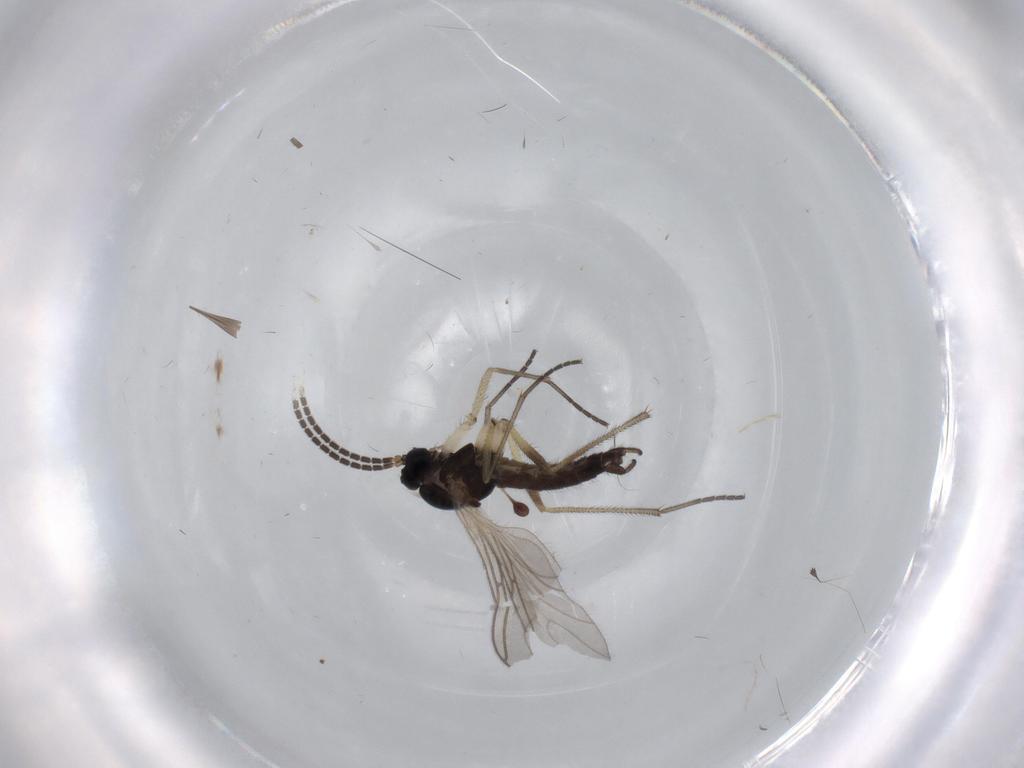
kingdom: Animalia
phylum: Arthropoda
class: Insecta
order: Diptera
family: Sciaridae
